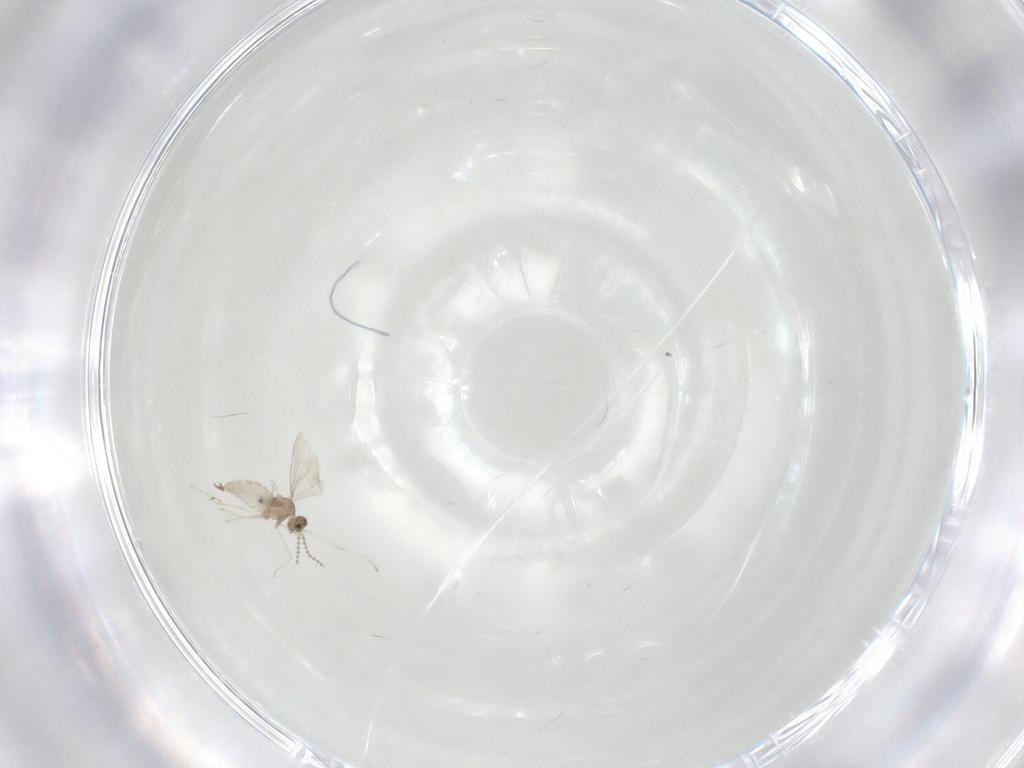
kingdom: Animalia
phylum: Arthropoda
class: Insecta
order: Diptera
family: Cecidomyiidae
